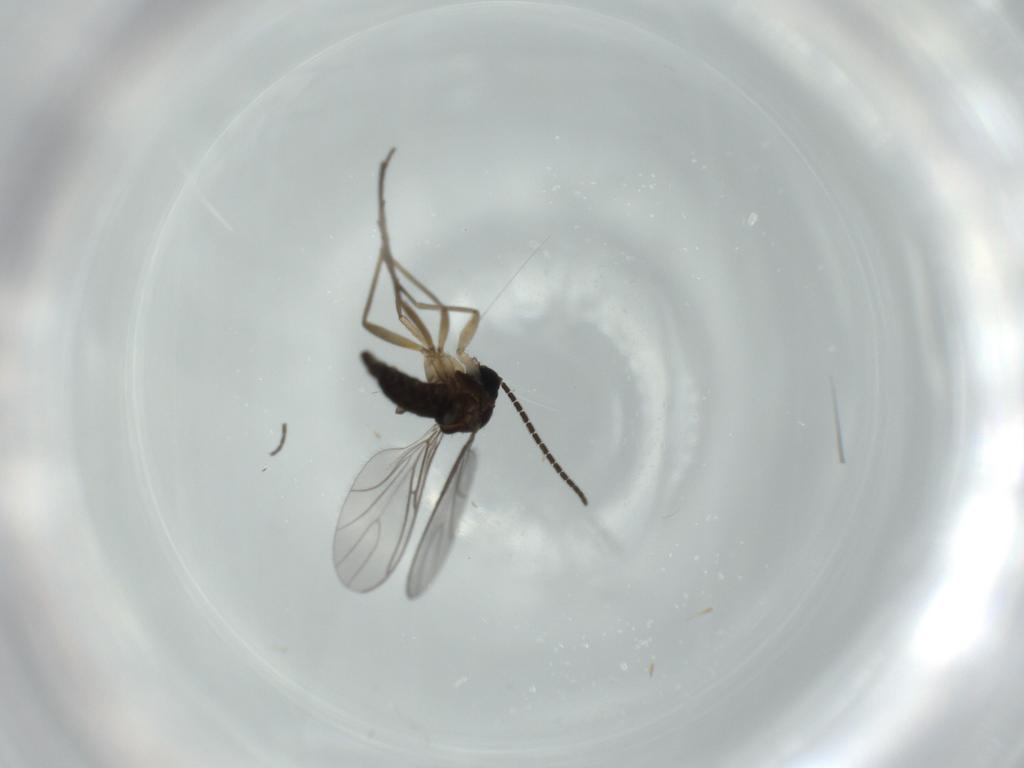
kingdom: Animalia
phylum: Arthropoda
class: Insecta
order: Diptera
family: Sciaridae
